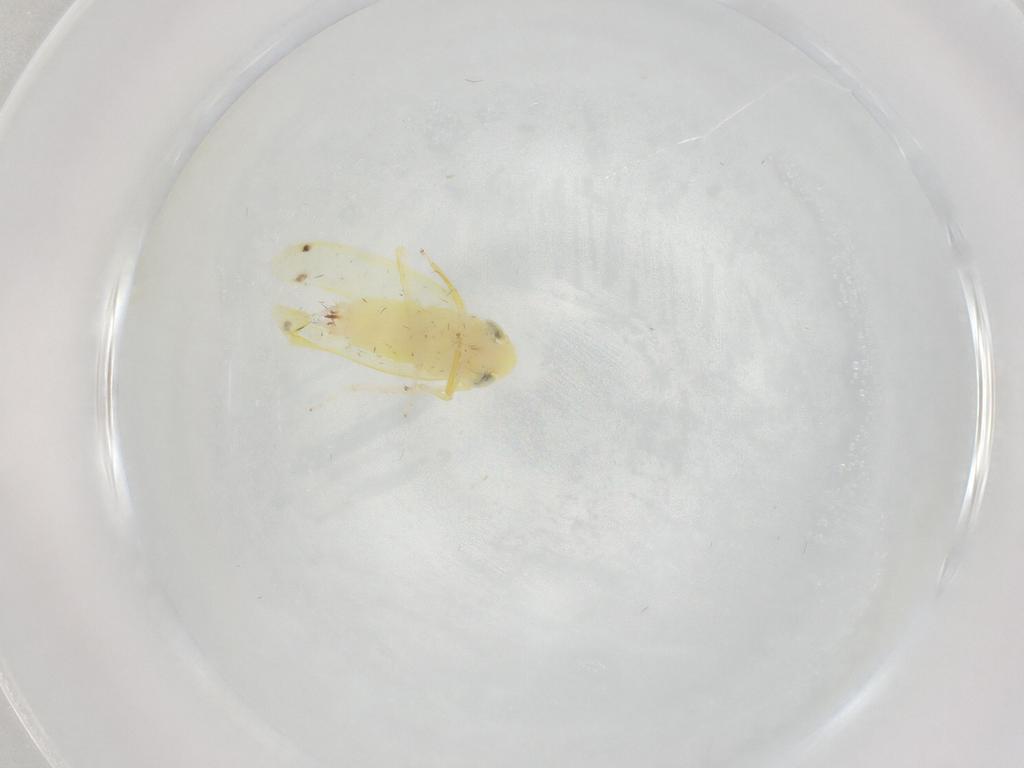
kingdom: Animalia
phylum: Arthropoda
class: Insecta
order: Hemiptera
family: Cicadellidae
